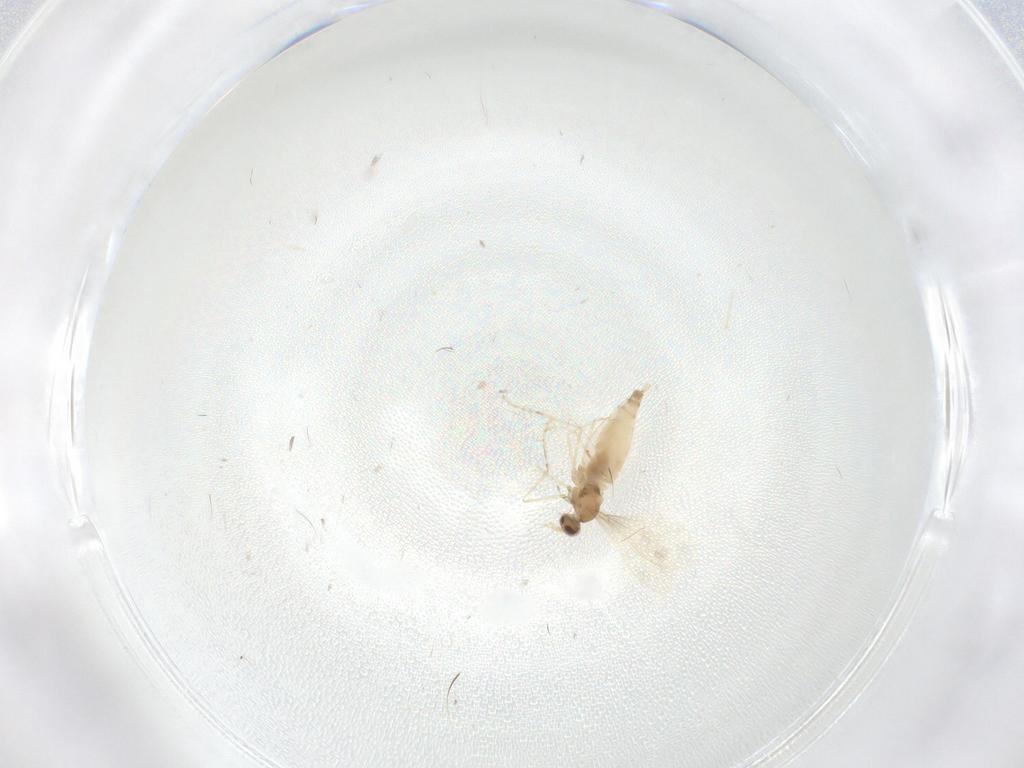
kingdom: Animalia
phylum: Arthropoda
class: Insecta
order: Diptera
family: Cecidomyiidae
